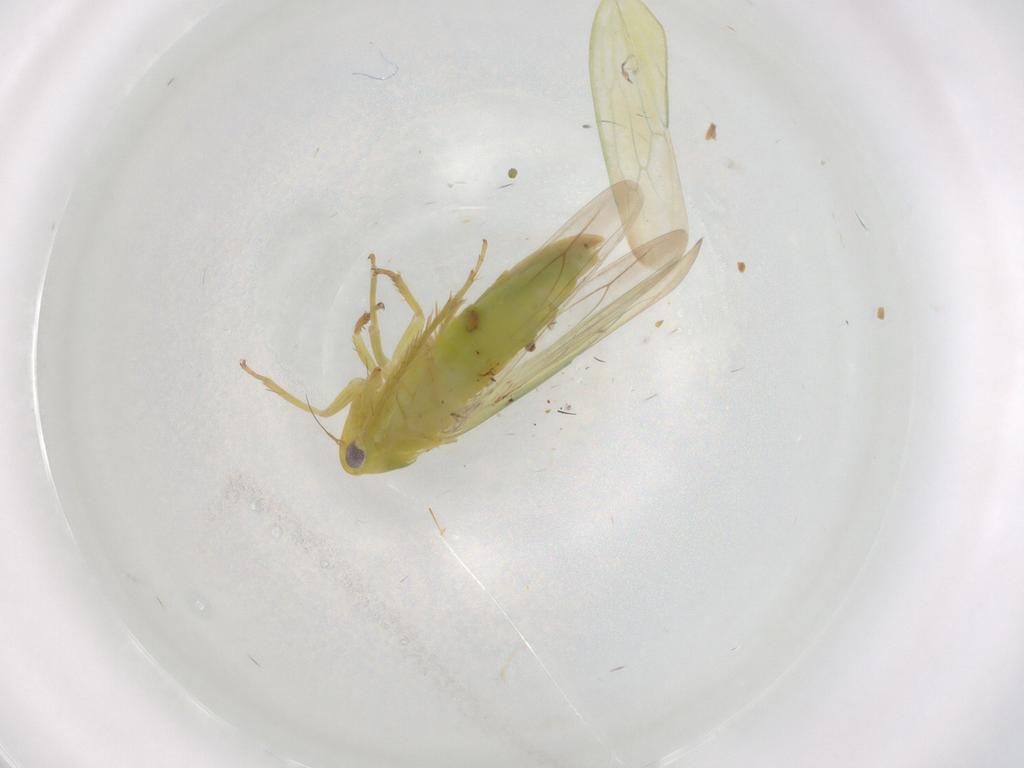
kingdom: Animalia
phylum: Arthropoda
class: Insecta
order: Hemiptera
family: Cicadellidae
